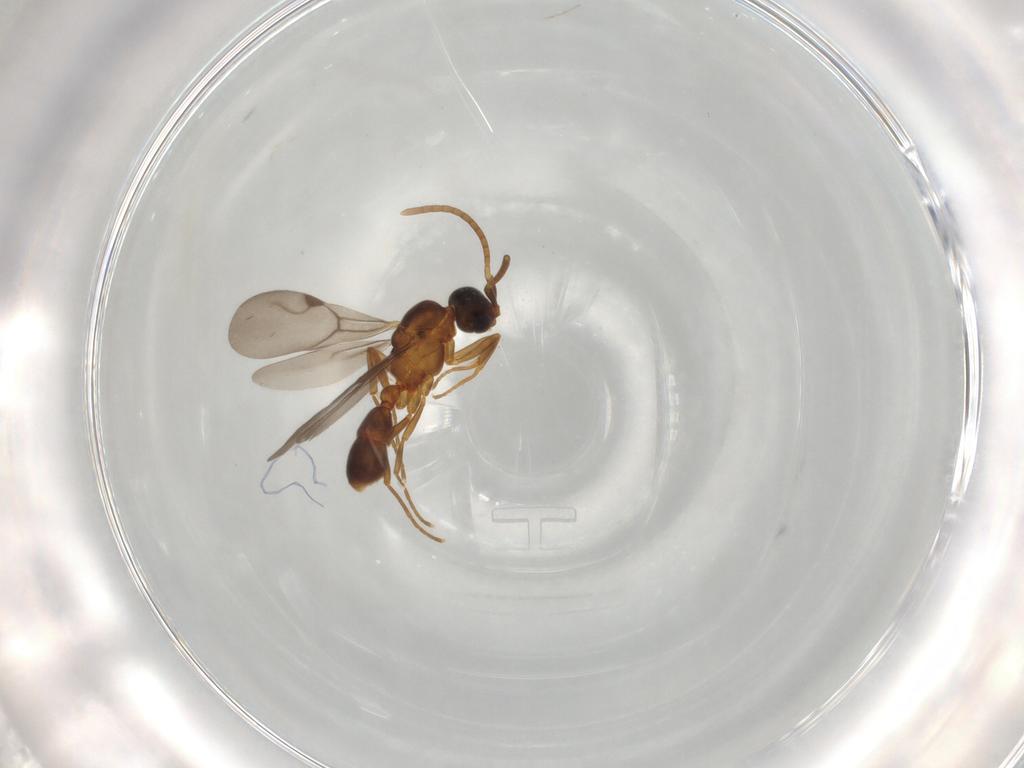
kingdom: Animalia
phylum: Arthropoda
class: Insecta
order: Hymenoptera
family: Formicidae
